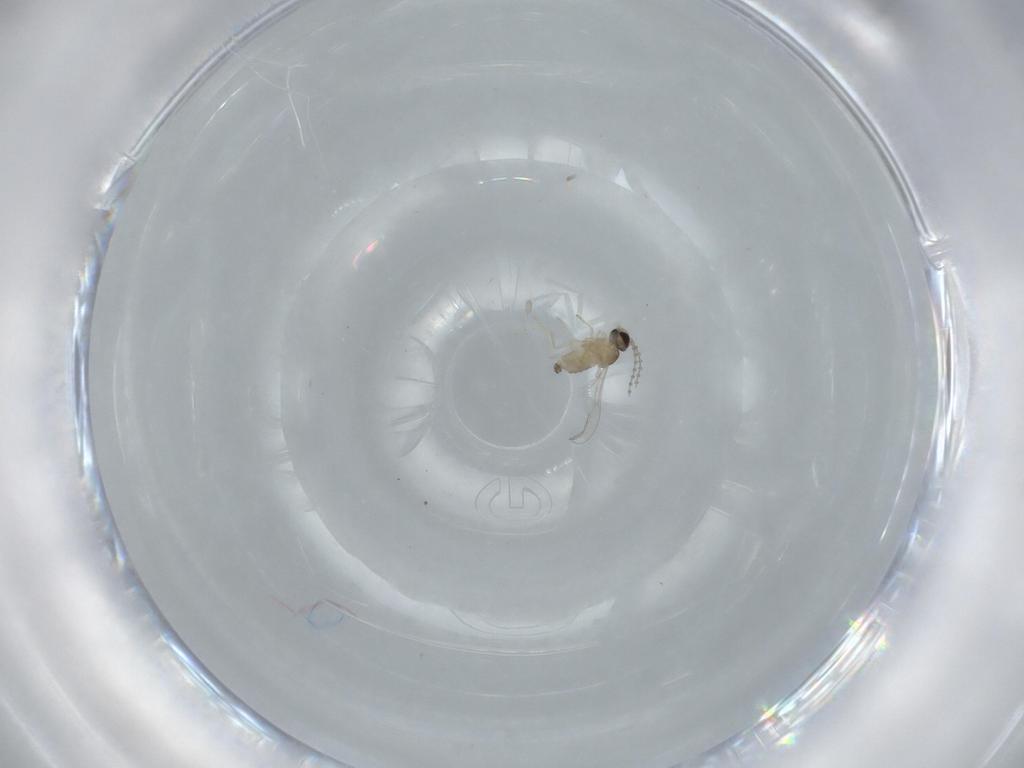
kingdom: Animalia
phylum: Arthropoda
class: Insecta
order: Diptera
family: Cecidomyiidae
